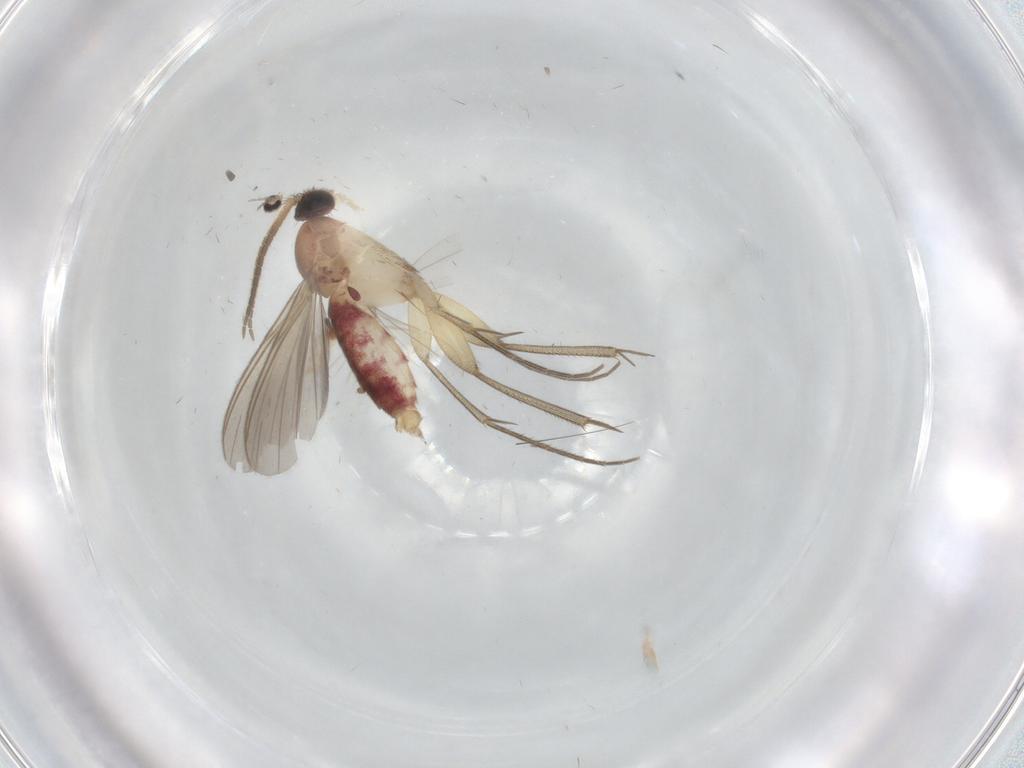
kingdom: Animalia
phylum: Arthropoda
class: Insecta
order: Diptera
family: Mycetophilidae
